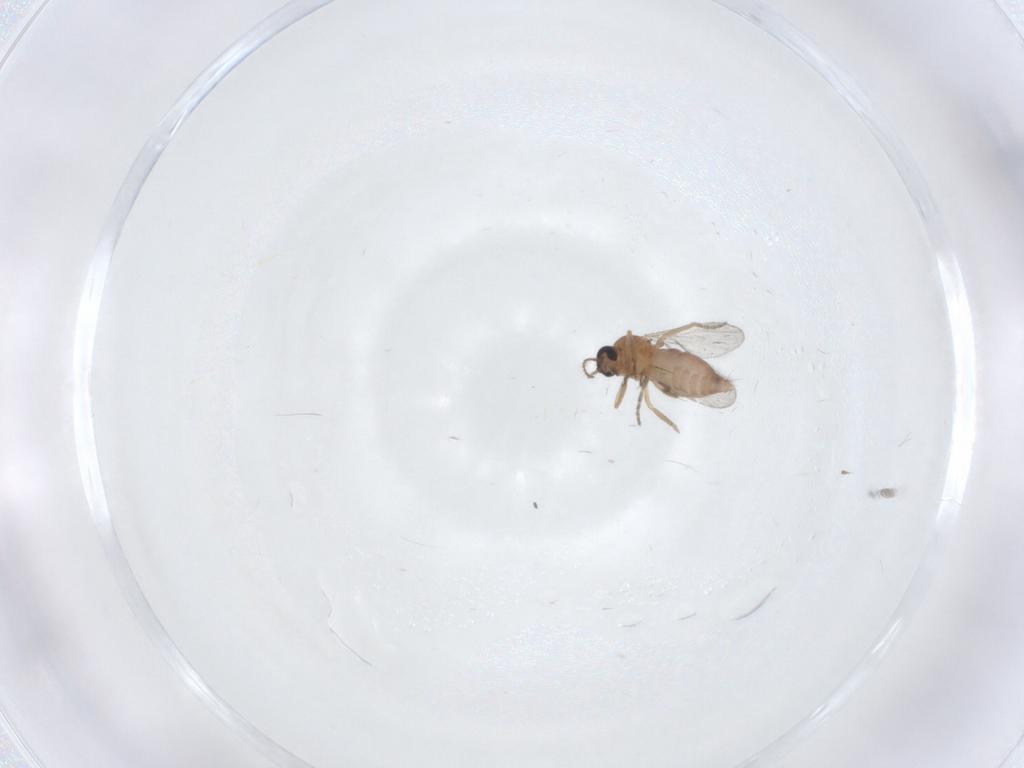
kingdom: Animalia
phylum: Arthropoda
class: Insecta
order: Diptera
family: Ceratopogonidae
